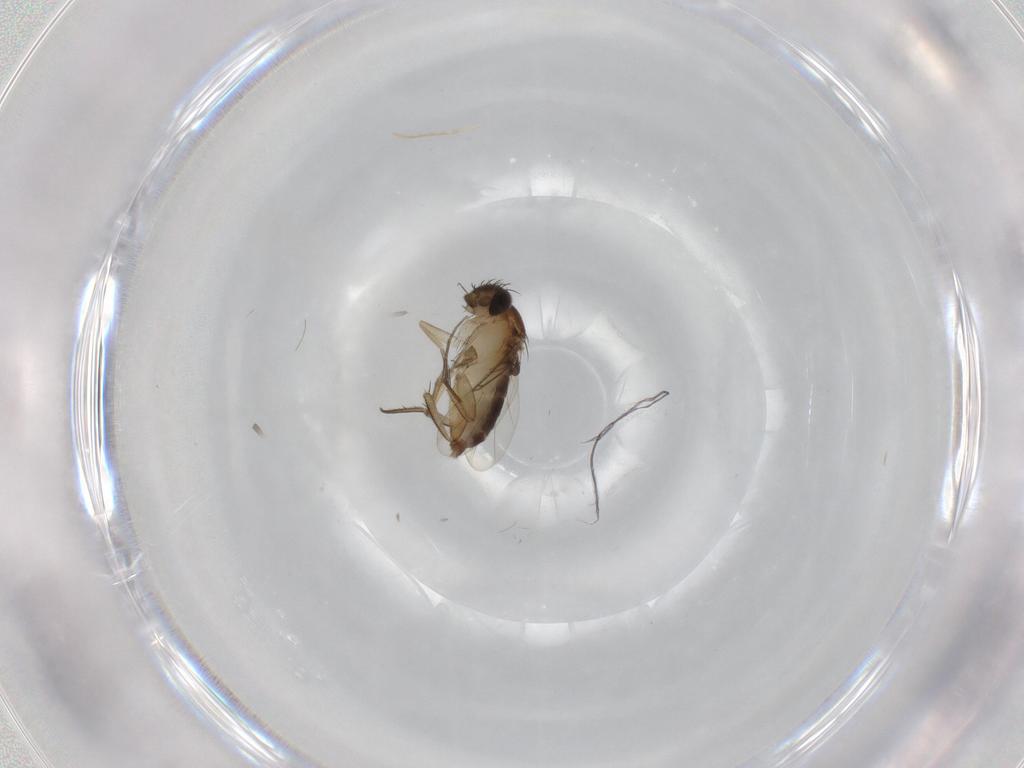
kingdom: Animalia
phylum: Arthropoda
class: Insecta
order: Diptera
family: Phoridae
